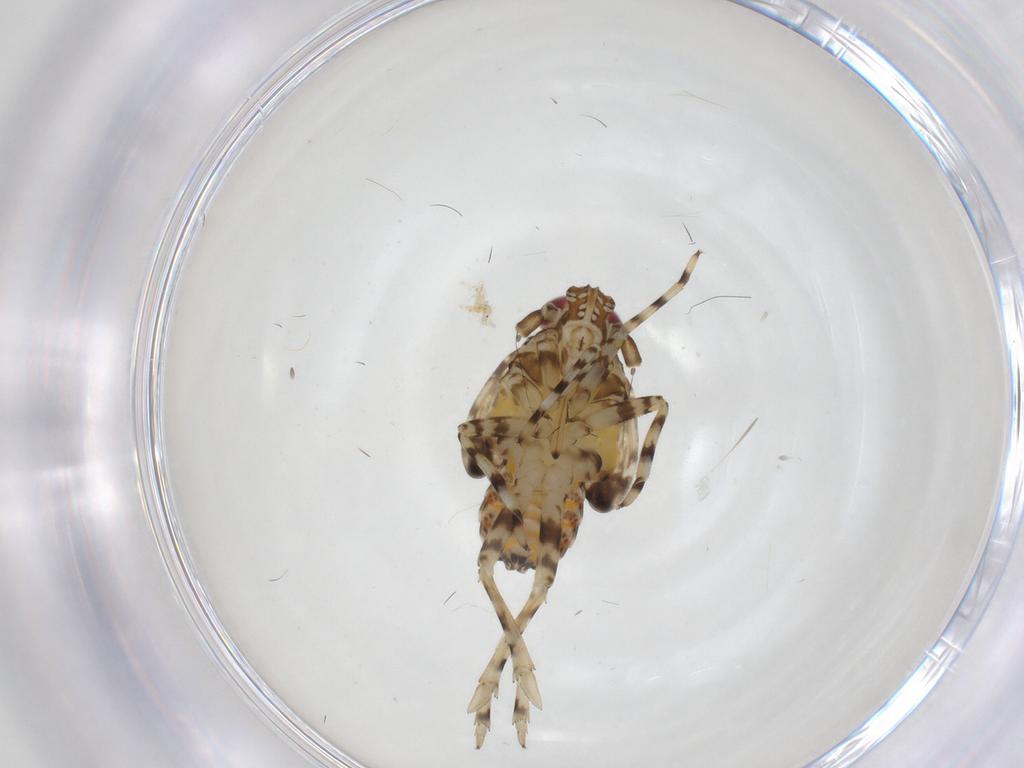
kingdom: Animalia
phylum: Arthropoda
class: Insecta
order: Hemiptera
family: Delphacidae
